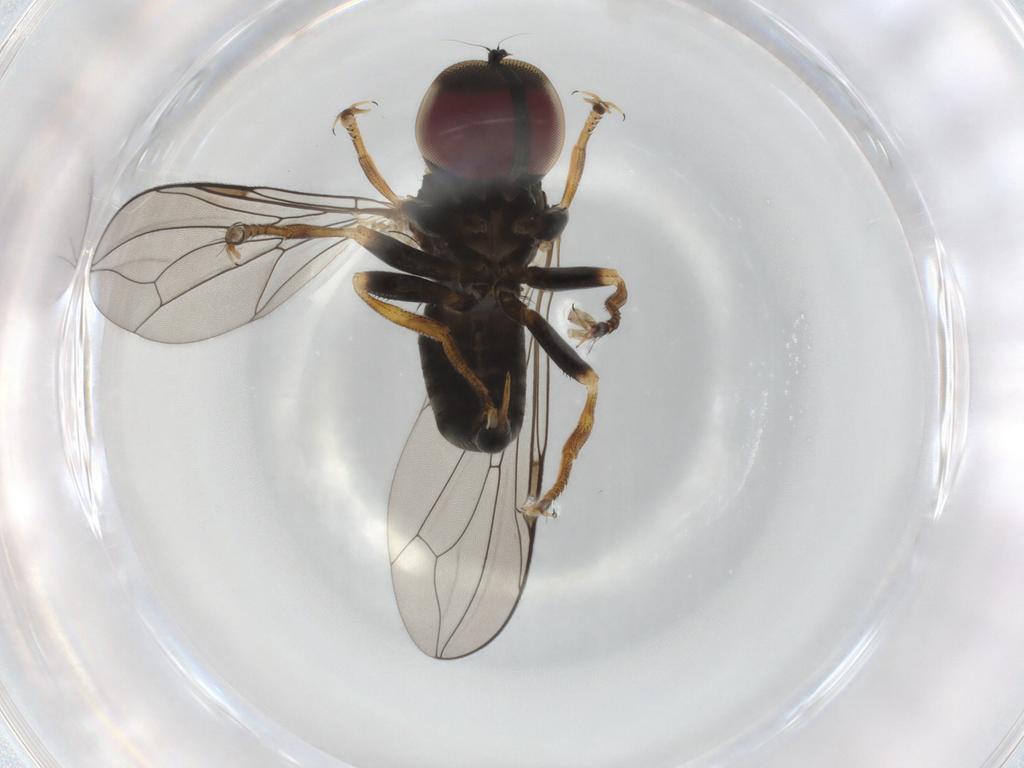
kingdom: Animalia
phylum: Arthropoda
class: Insecta
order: Diptera
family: Pipunculidae
